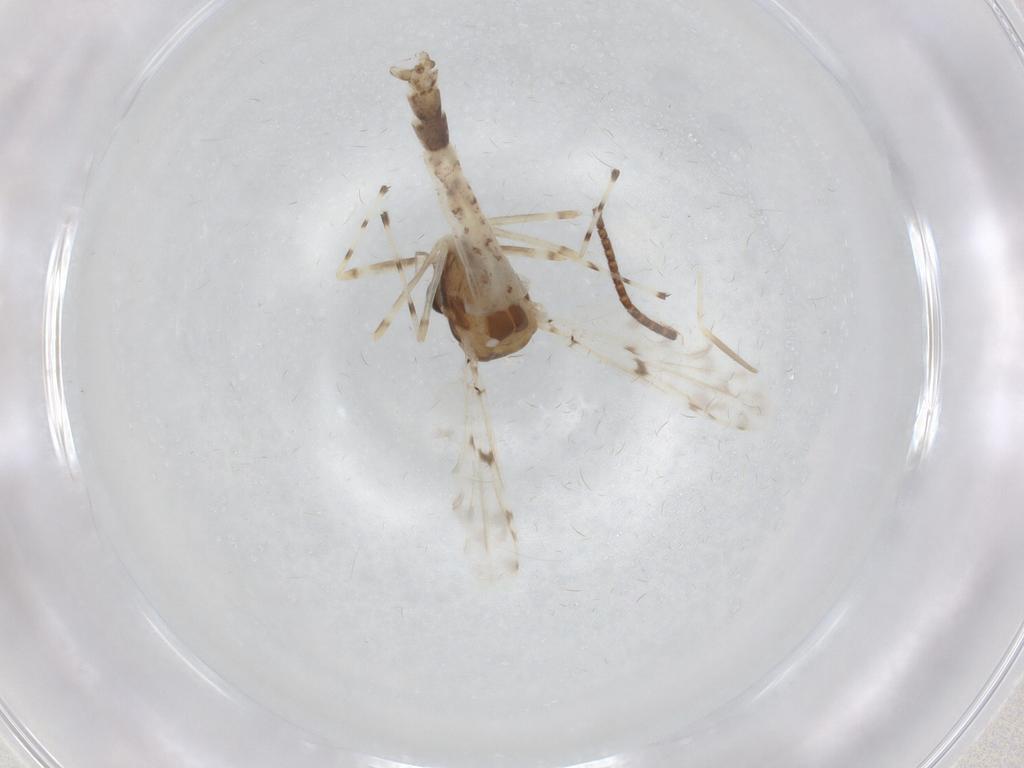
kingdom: Animalia
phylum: Arthropoda
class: Insecta
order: Diptera
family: Chironomidae
